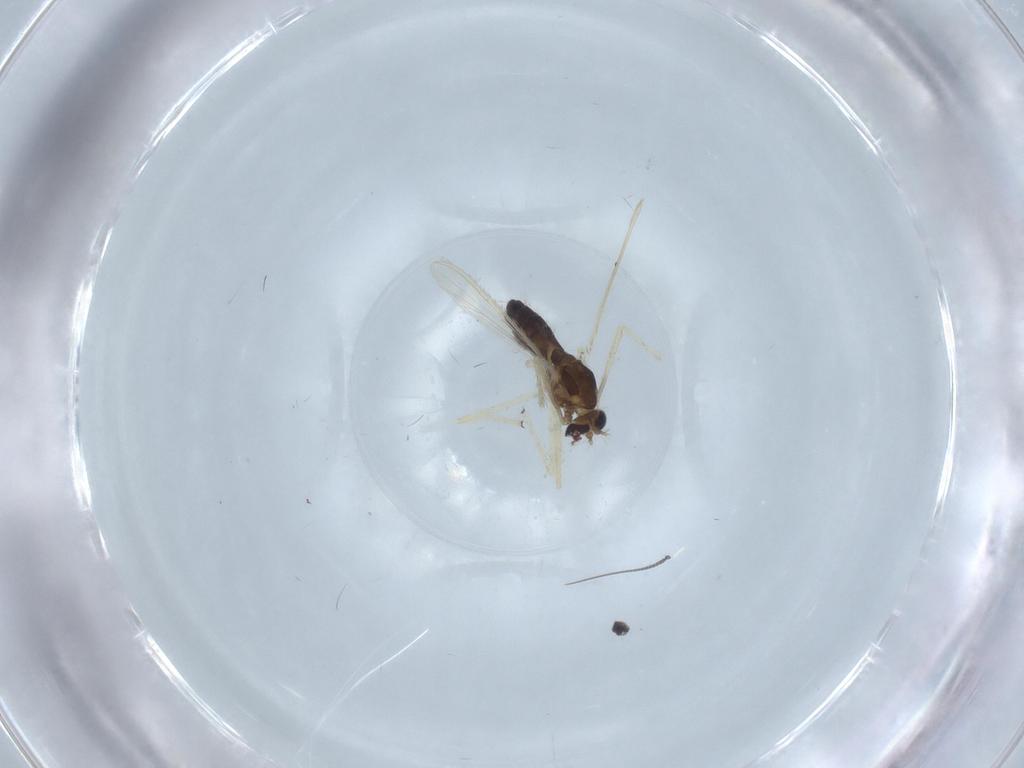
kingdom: Animalia
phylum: Arthropoda
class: Insecta
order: Diptera
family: Chironomidae
